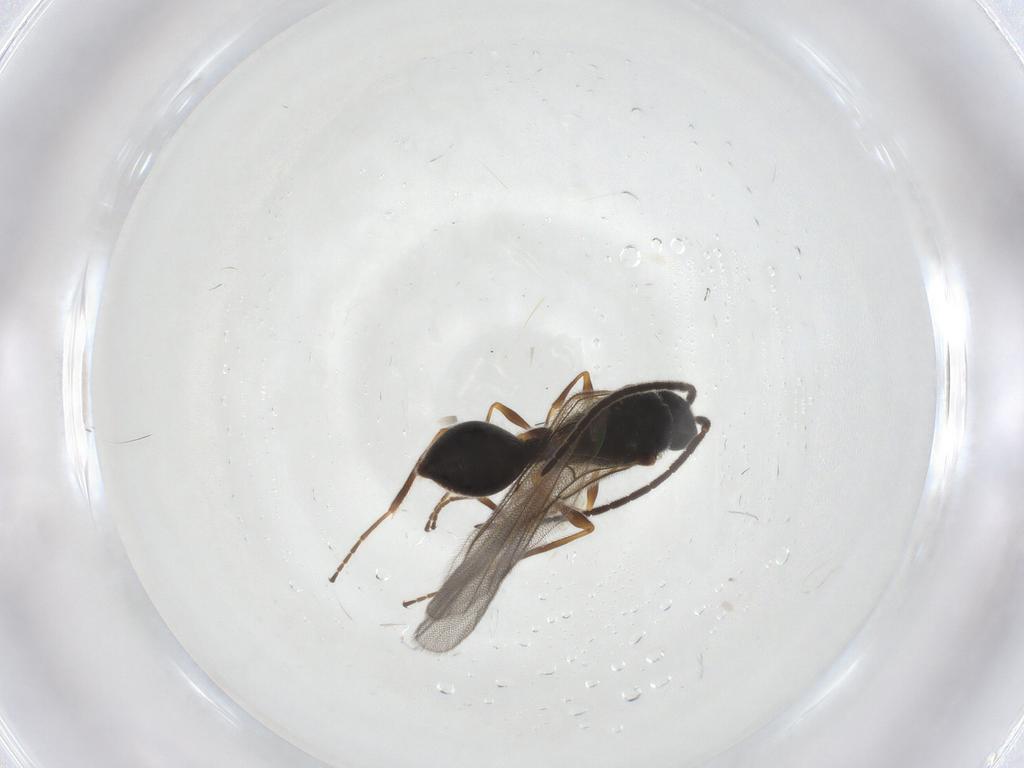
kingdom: Animalia
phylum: Arthropoda
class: Insecta
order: Hymenoptera
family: Diapriidae
